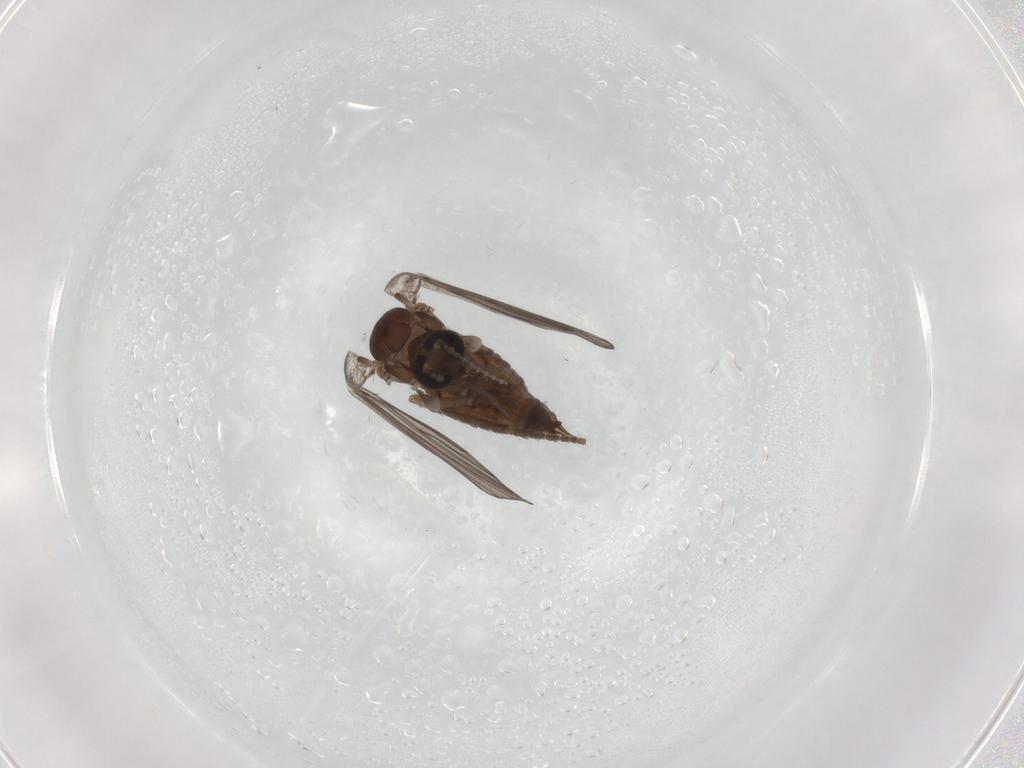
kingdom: Animalia
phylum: Arthropoda
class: Insecta
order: Diptera
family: Psychodidae
